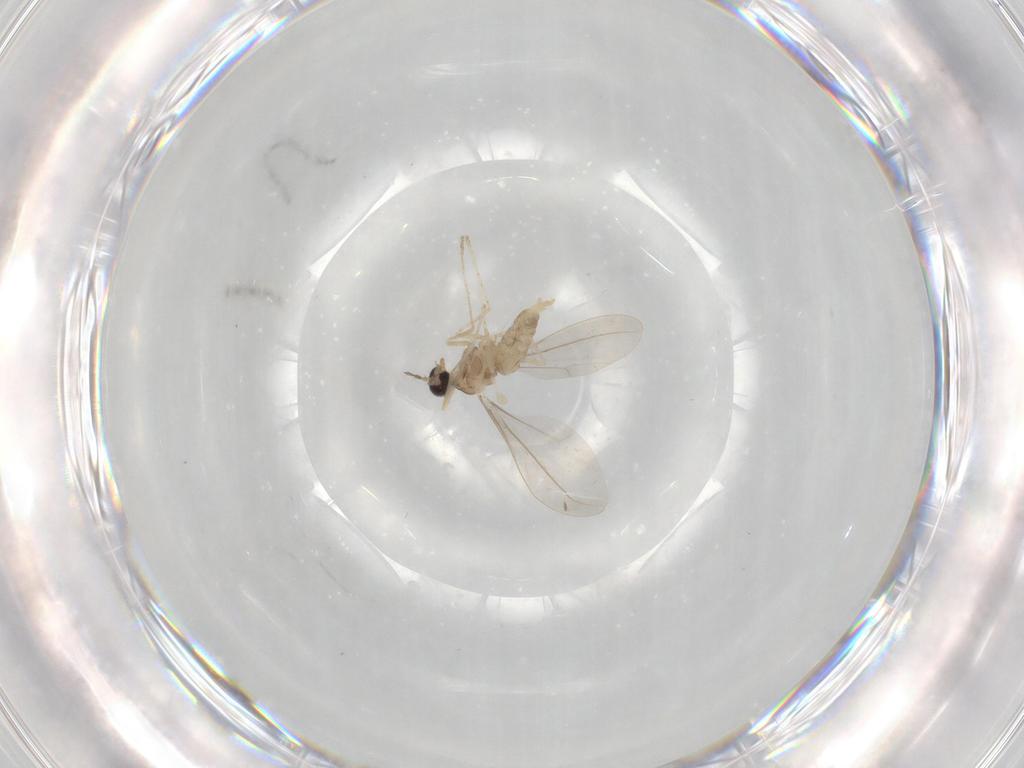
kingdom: Animalia
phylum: Arthropoda
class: Insecta
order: Diptera
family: Cecidomyiidae
